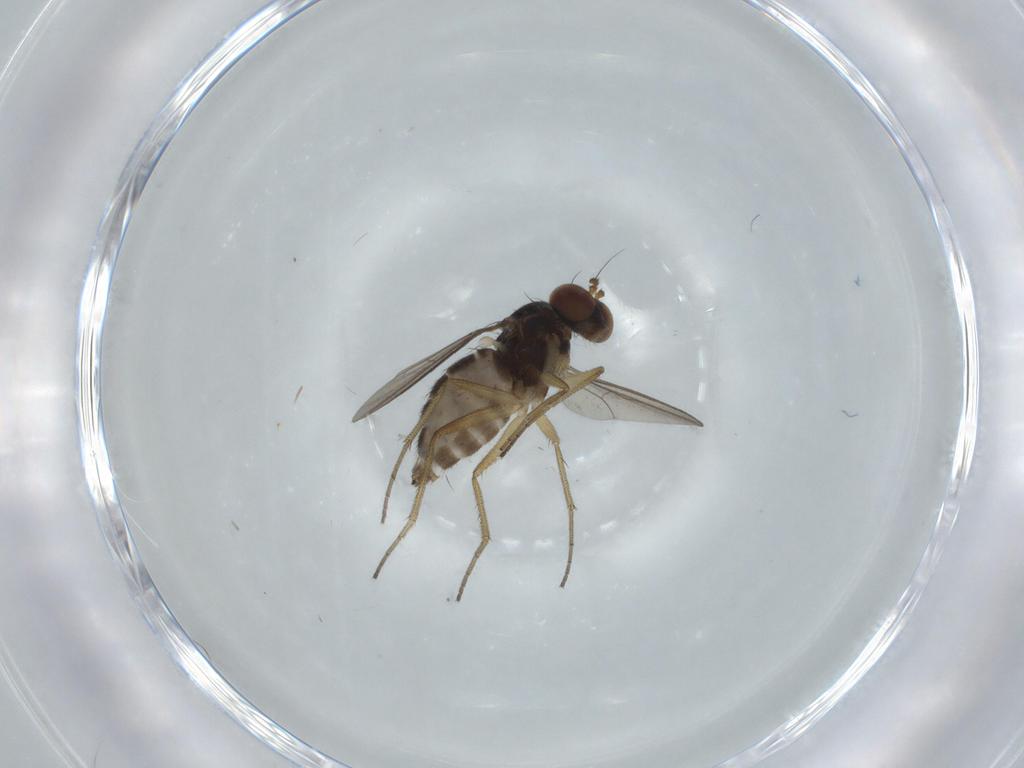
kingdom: Animalia
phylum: Arthropoda
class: Insecta
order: Diptera
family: Dolichopodidae
